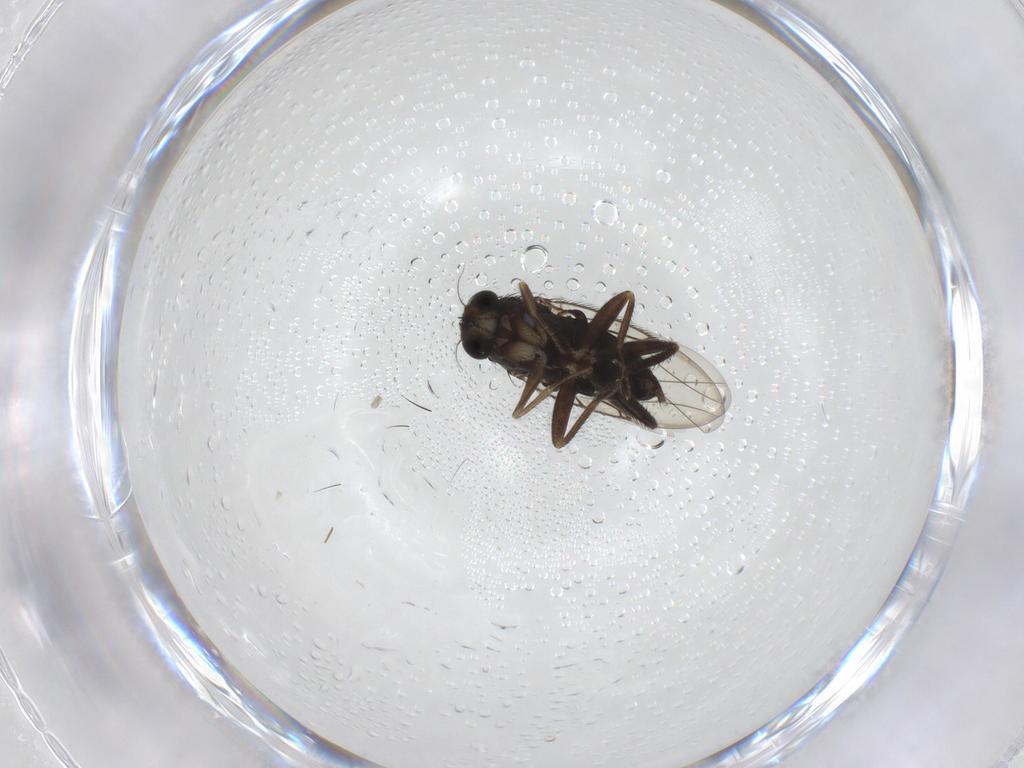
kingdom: Animalia
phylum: Arthropoda
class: Insecta
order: Diptera
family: Phoridae
